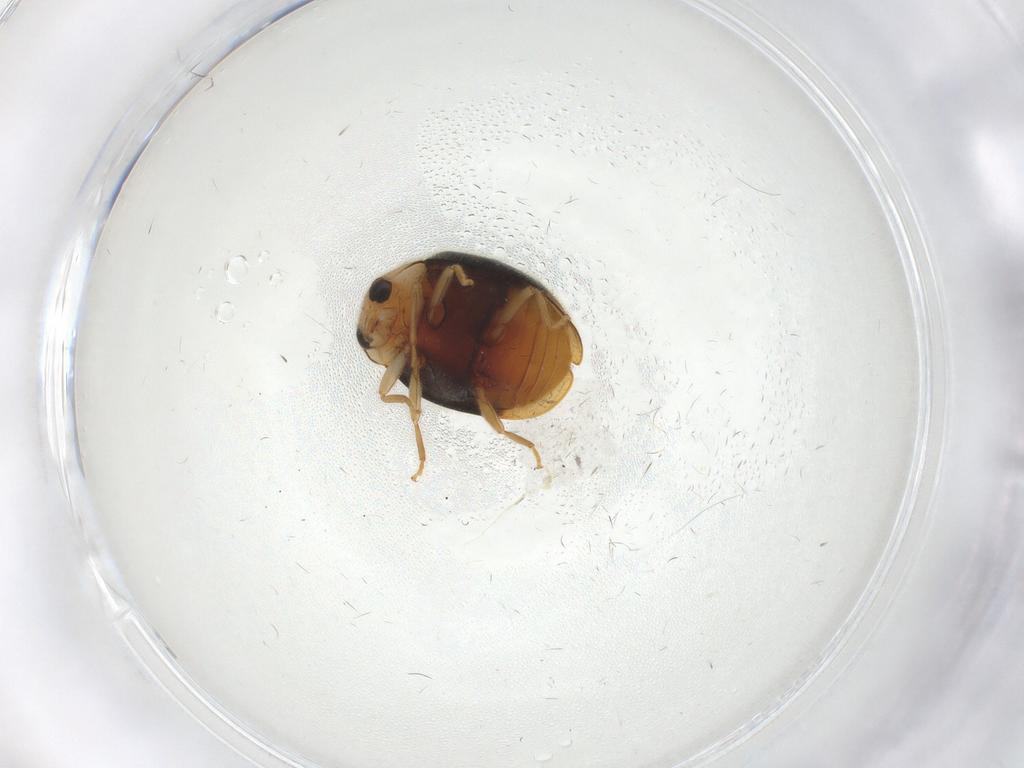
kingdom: Animalia
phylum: Arthropoda
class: Insecta
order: Coleoptera
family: Coccinellidae
